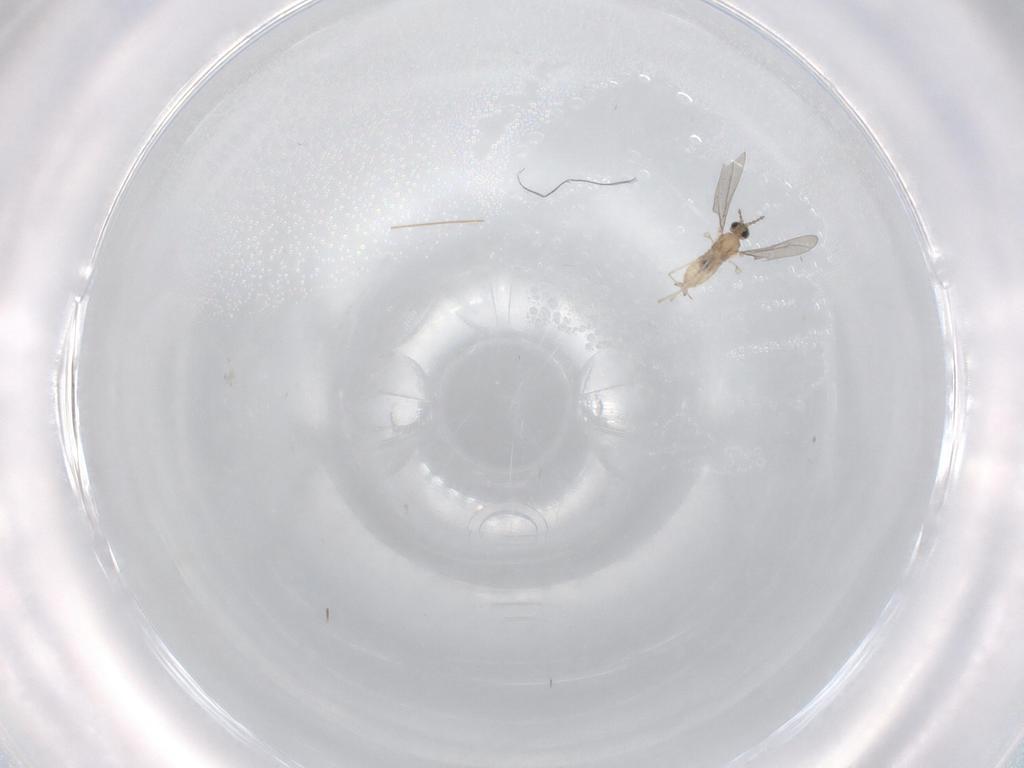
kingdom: Animalia
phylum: Arthropoda
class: Insecta
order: Diptera
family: Cecidomyiidae
